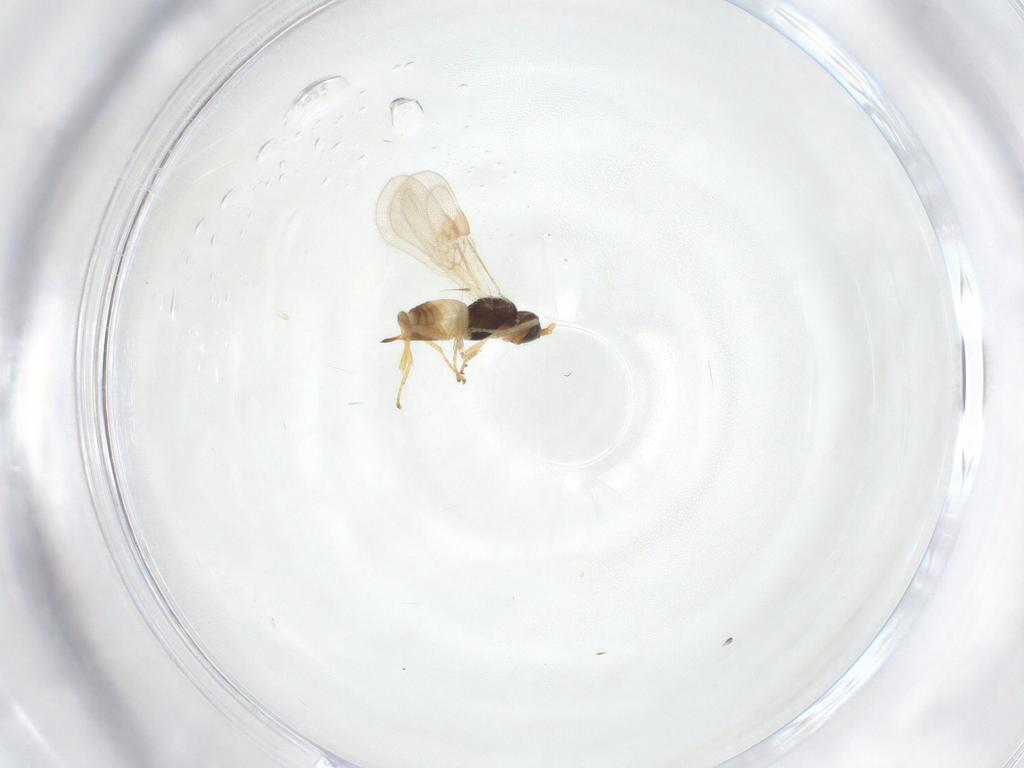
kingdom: Animalia
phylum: Arthropoda
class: Insecta
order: Hymenoptera
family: Braconidae
